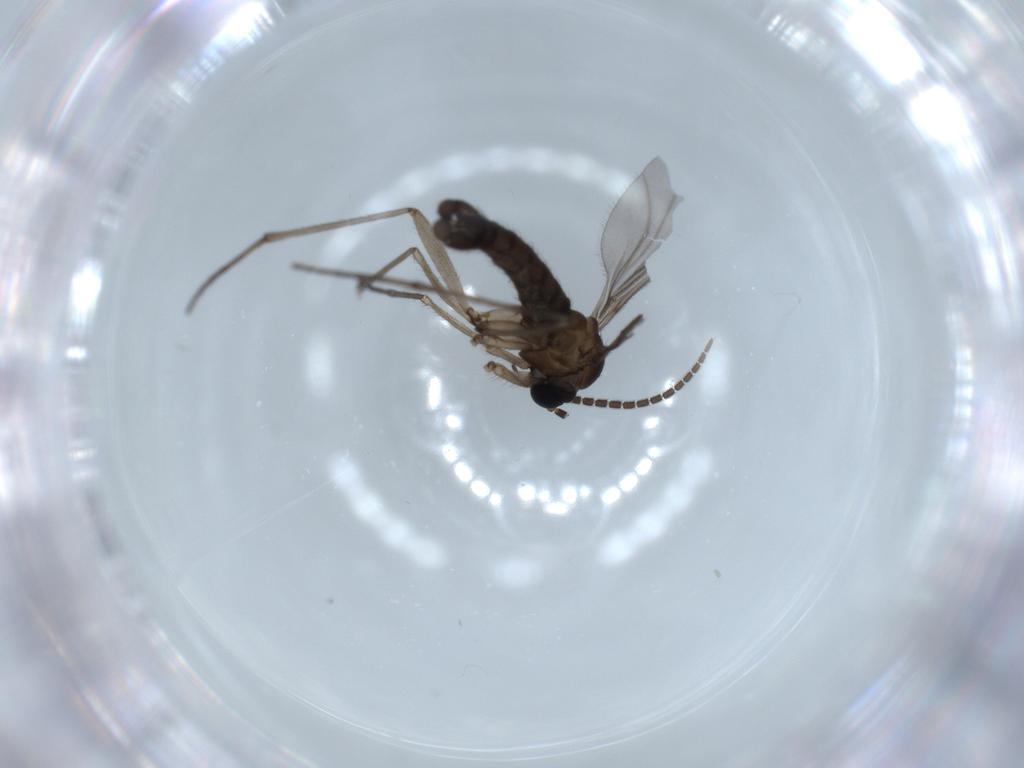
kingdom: Animalia
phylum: Arthropoda
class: Insecta
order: Diptera
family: Sciaridae
